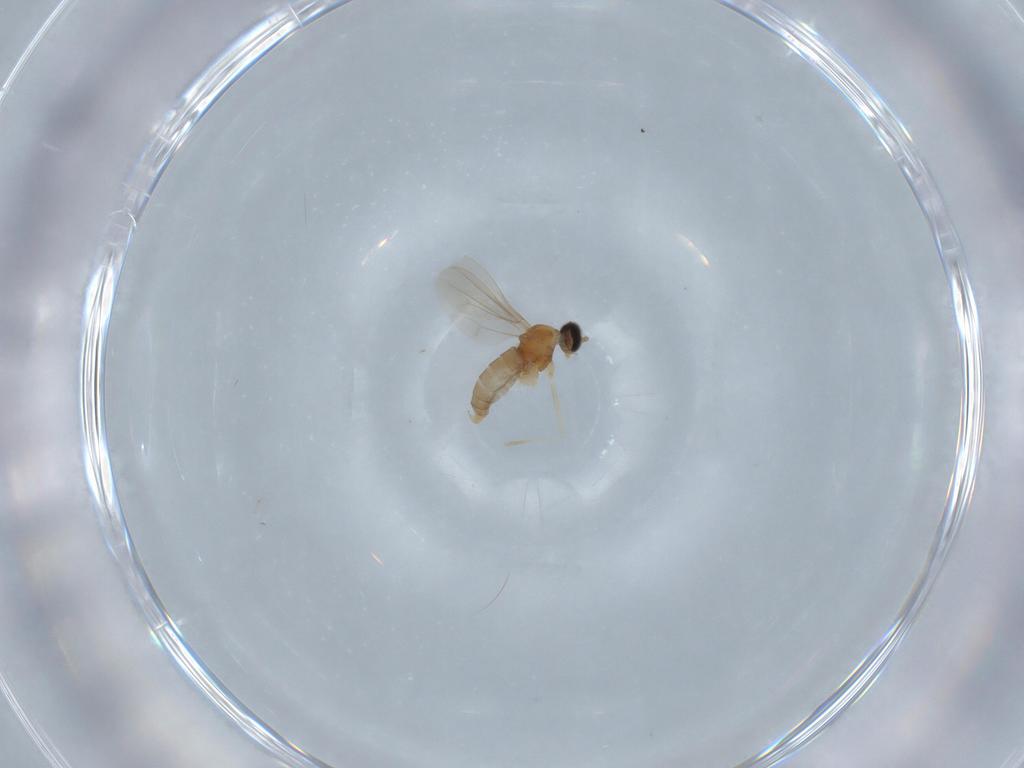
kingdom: Animalia
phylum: Arthropoda
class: Insecta
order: Diptera
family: Cecidomyiidae
